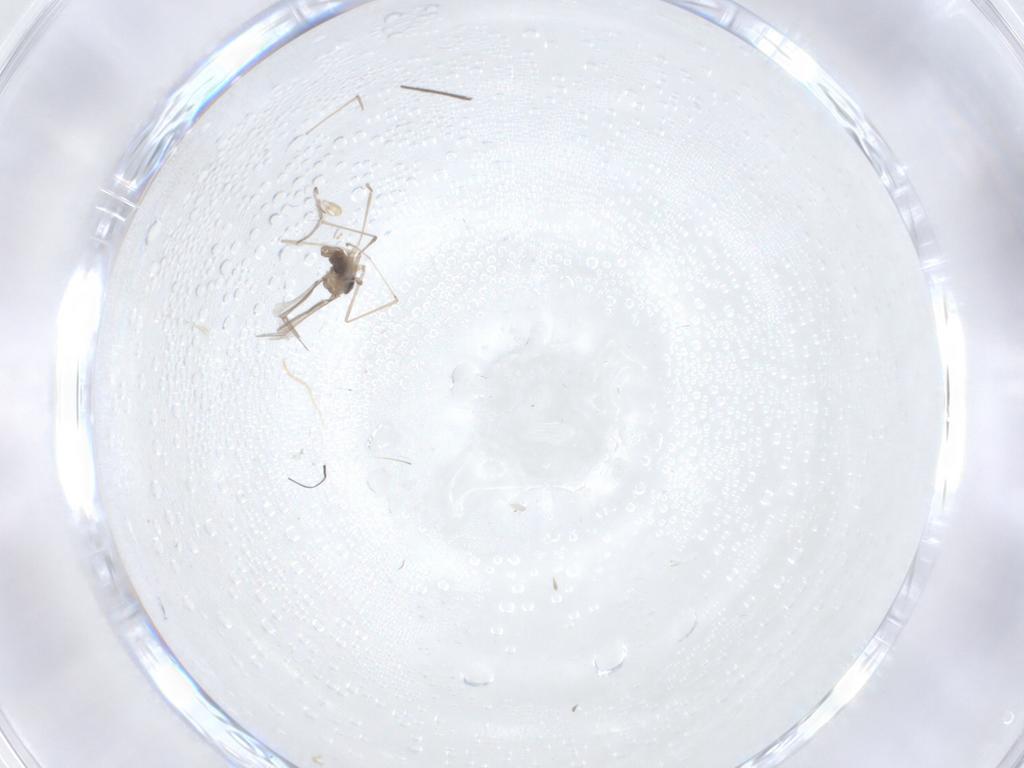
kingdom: Animalia
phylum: Arthropoda
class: Insecta
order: Diptera
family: Cecidomyiidae
